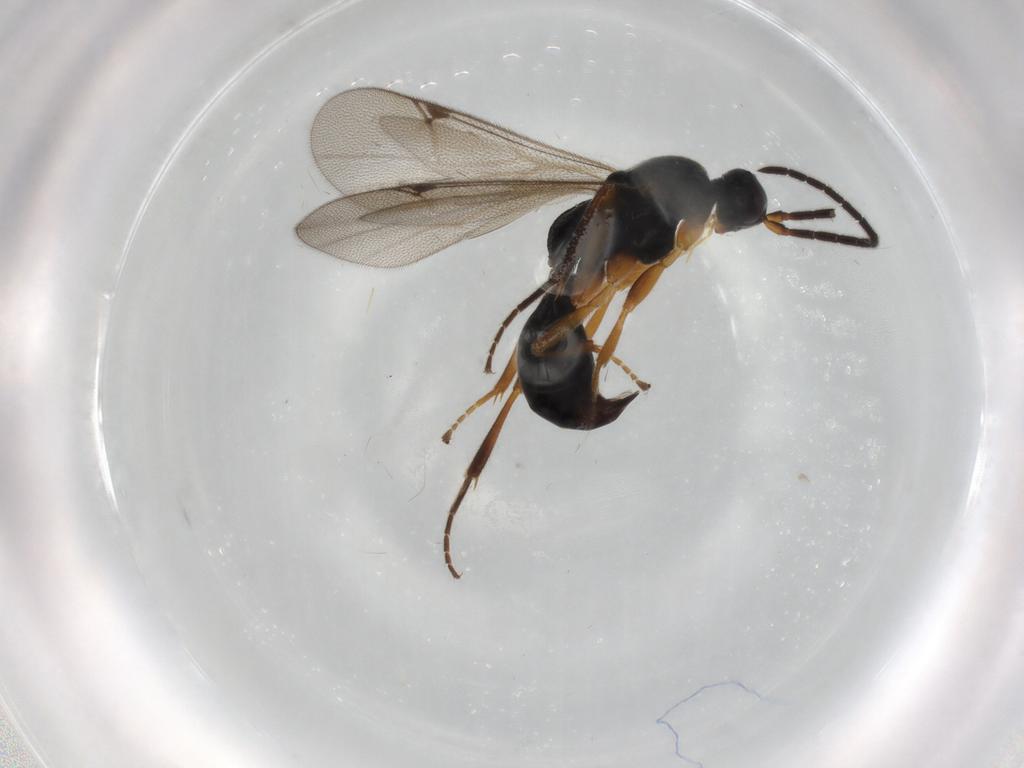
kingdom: Animalia
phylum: Arthropoda
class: Insecta
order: Hymenoptera
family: Proctotrupidae
